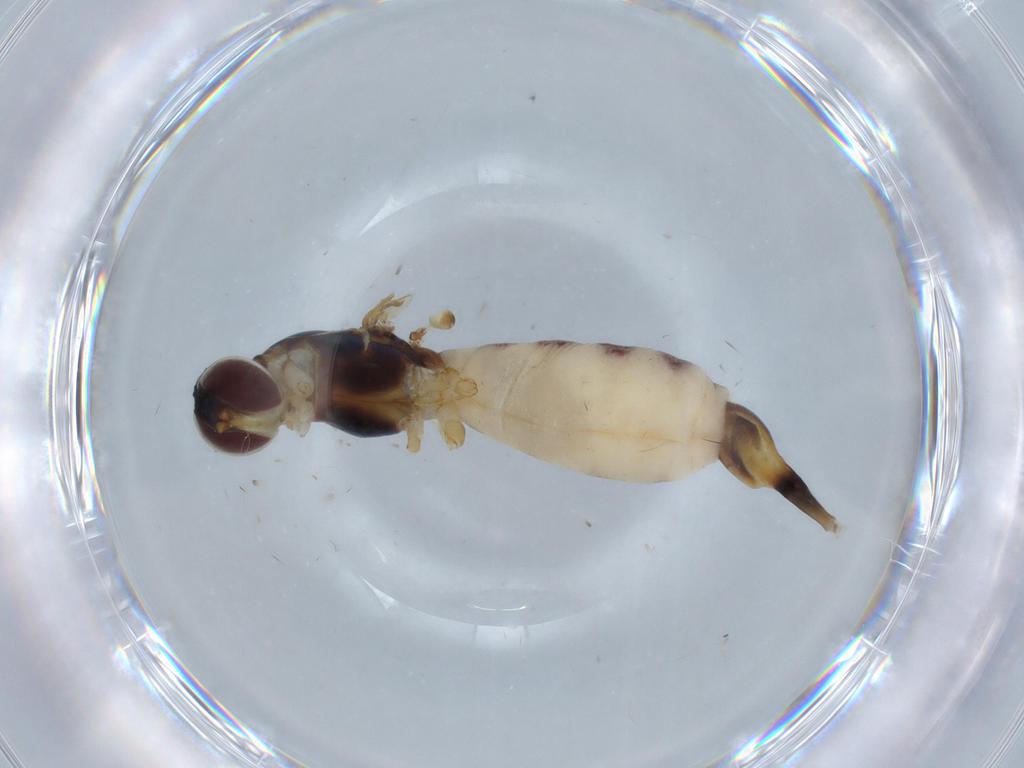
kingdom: Animalia
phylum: Arthropoda
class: Insecta
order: Diptera
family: Micropezidae
